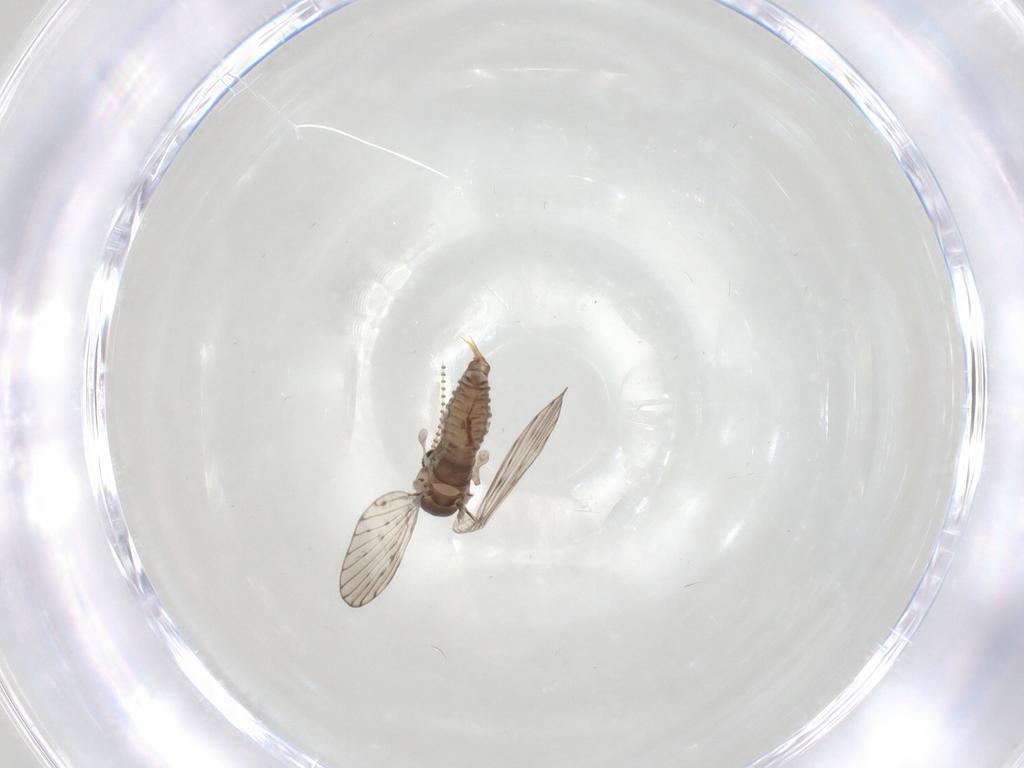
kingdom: Animalia
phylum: Arthropoda
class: Insecta
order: Diptera
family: Psychodidae
